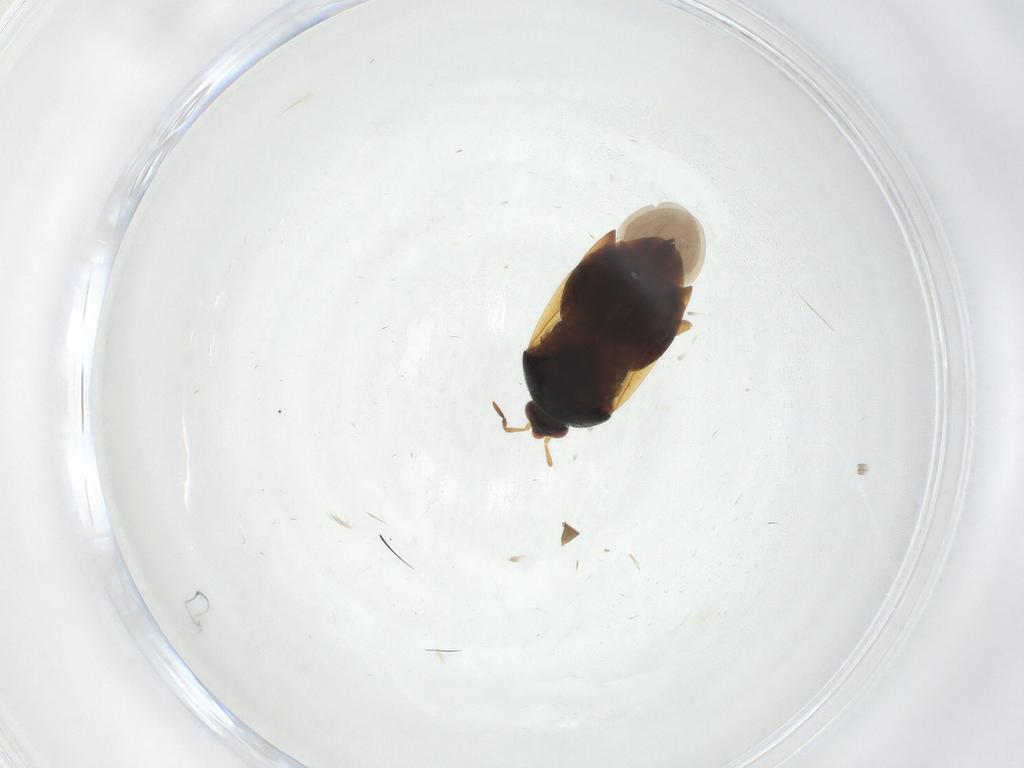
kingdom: Animalia
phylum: Arthropoda
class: Insecta
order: Hemiptera
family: Anthocoridae
